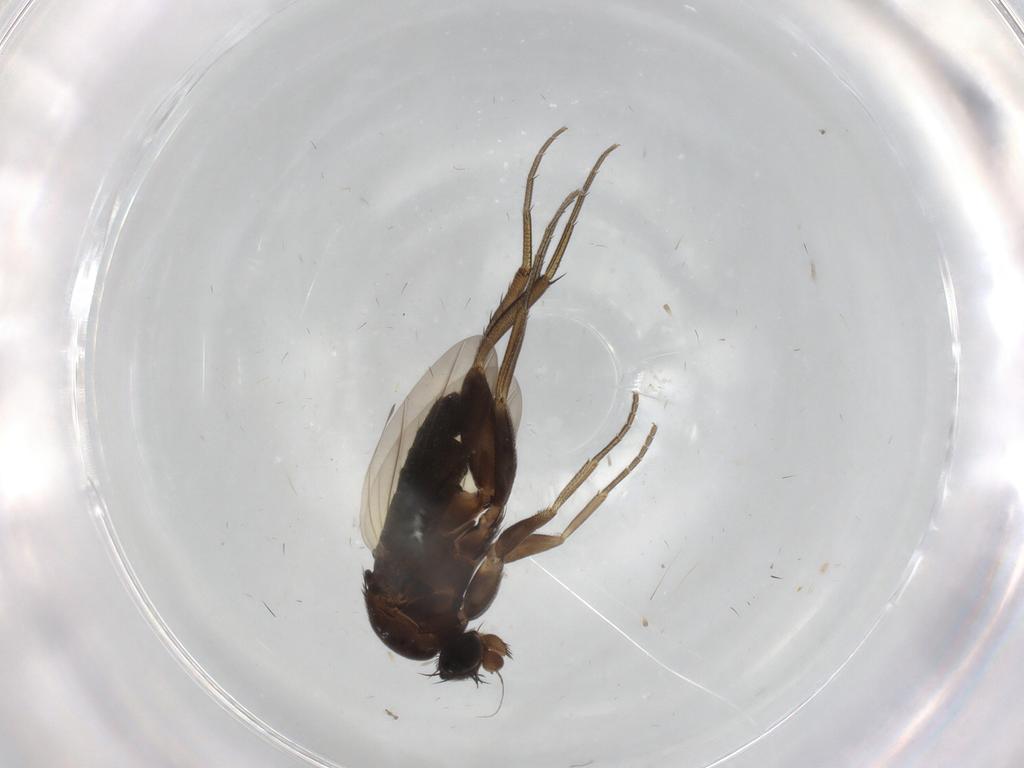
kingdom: Animalia
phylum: Arthropoda
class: Insecta
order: Diptera
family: Phoridae
